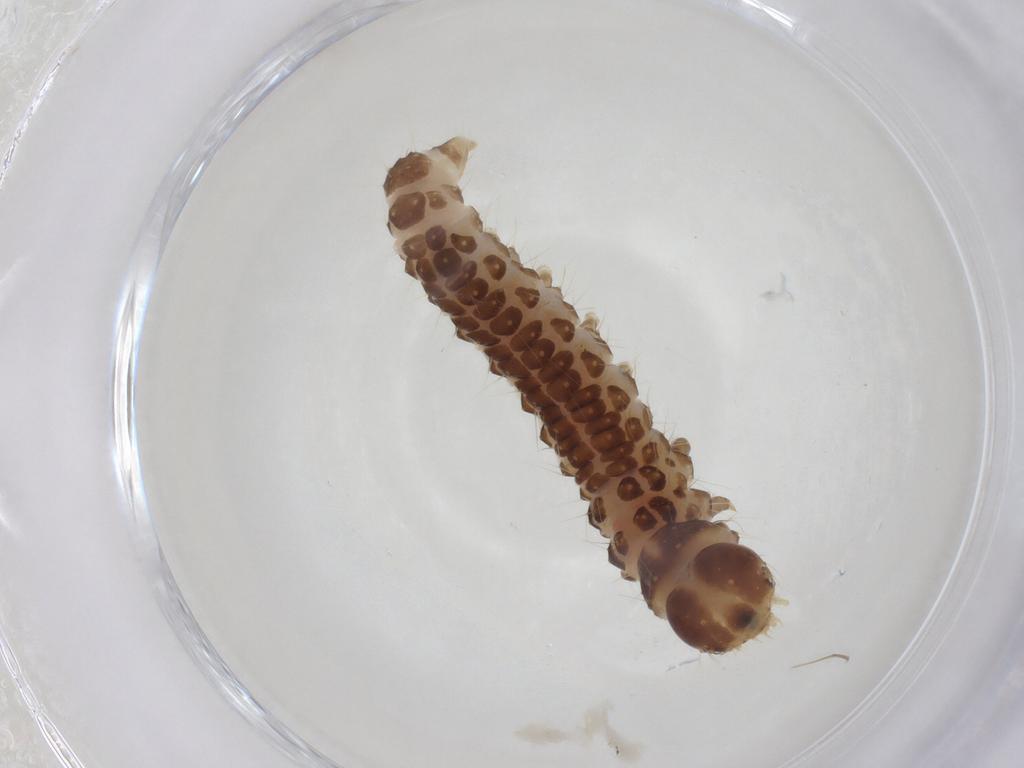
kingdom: Animalia
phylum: Arthropoda
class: Insecta
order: Lepidoptera
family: Crambidae
